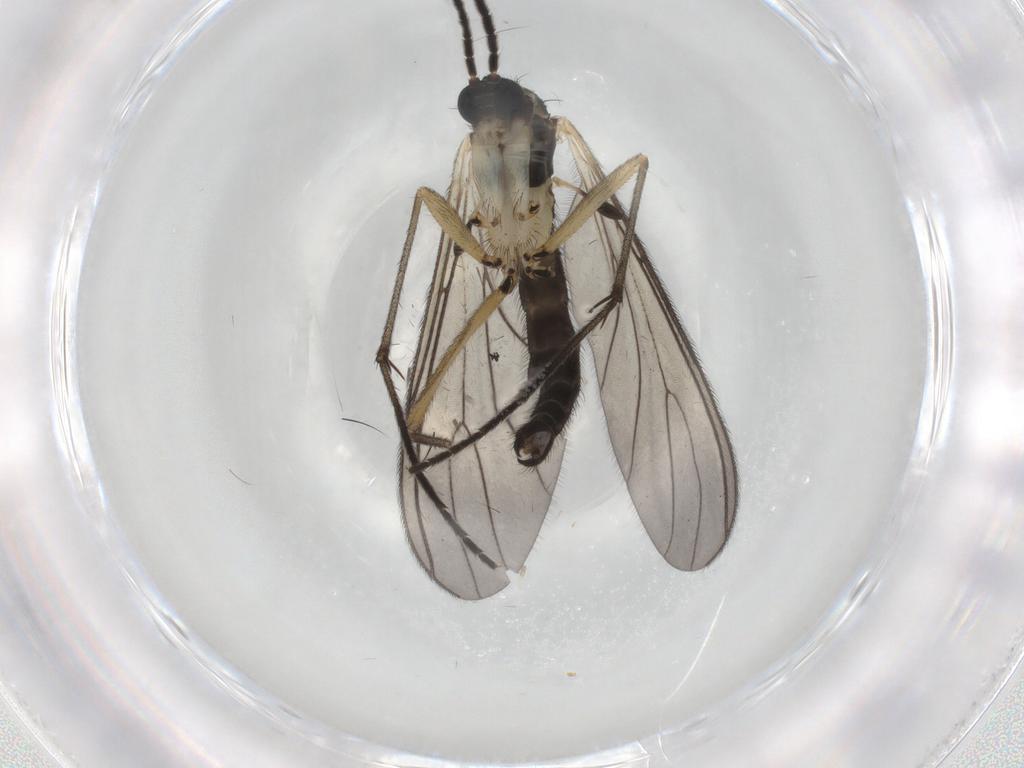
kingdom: Animalia
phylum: Arthropoda
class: Insecta
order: Diptera
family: Sciaridae
